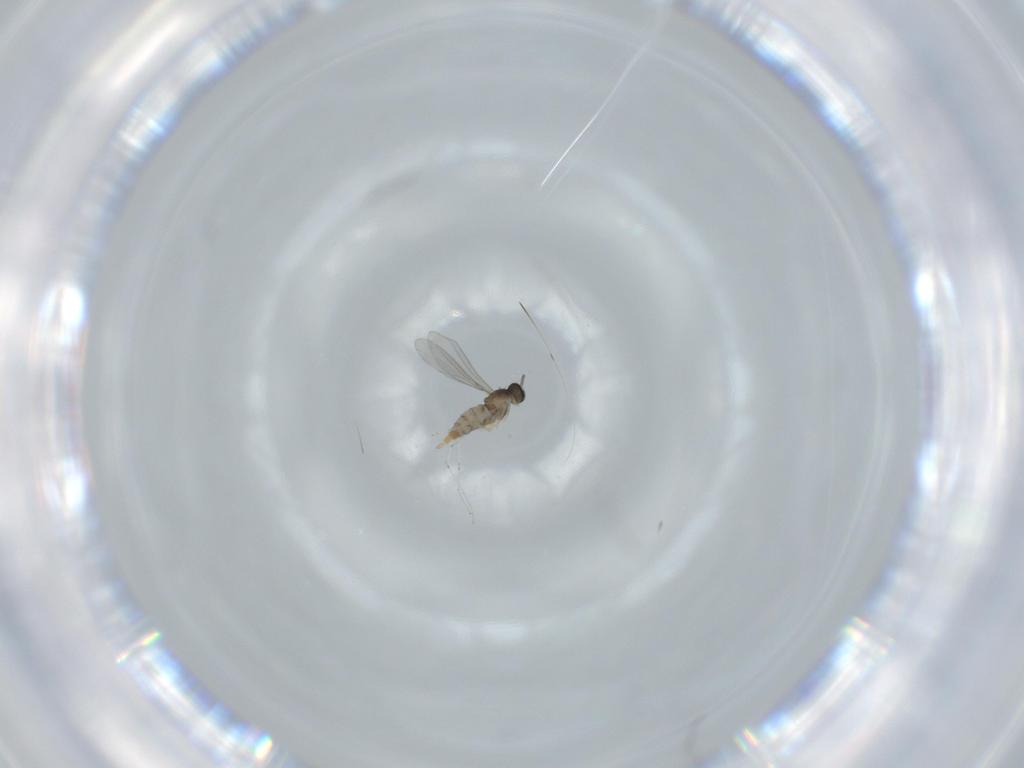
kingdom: Animalia
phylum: Arthropoda
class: Insecta
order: Diptera
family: Cecidomyiidae
